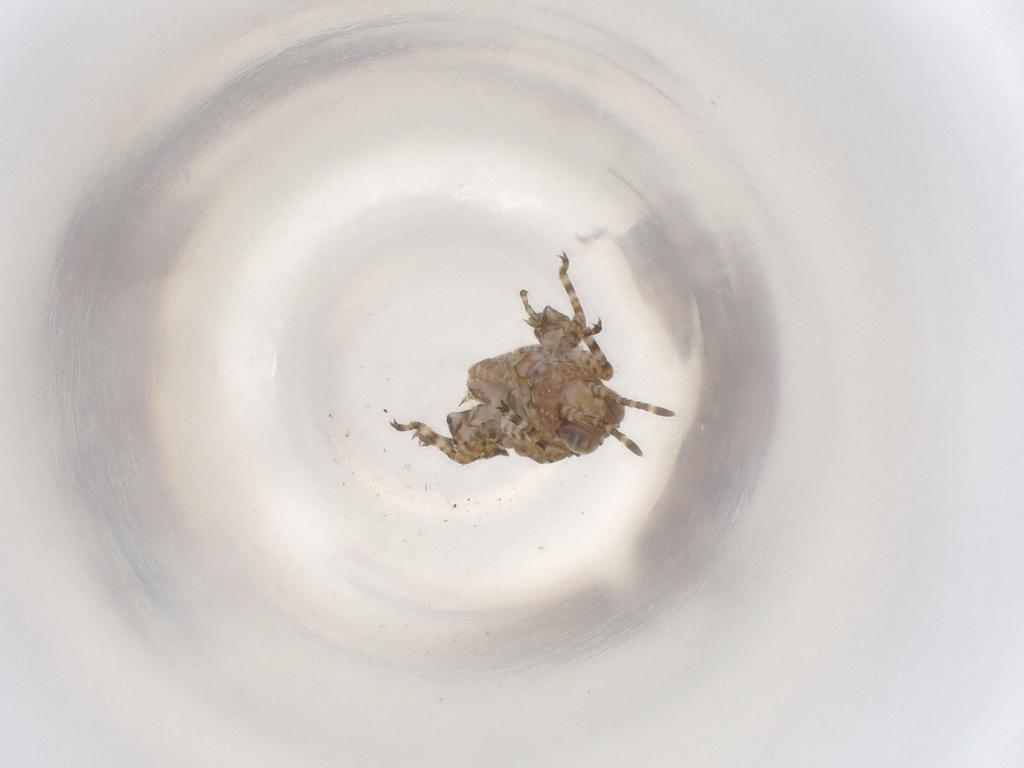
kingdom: Animalia
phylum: Arthropoda
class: Insecta
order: Orthoptera
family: Tetrigidae
